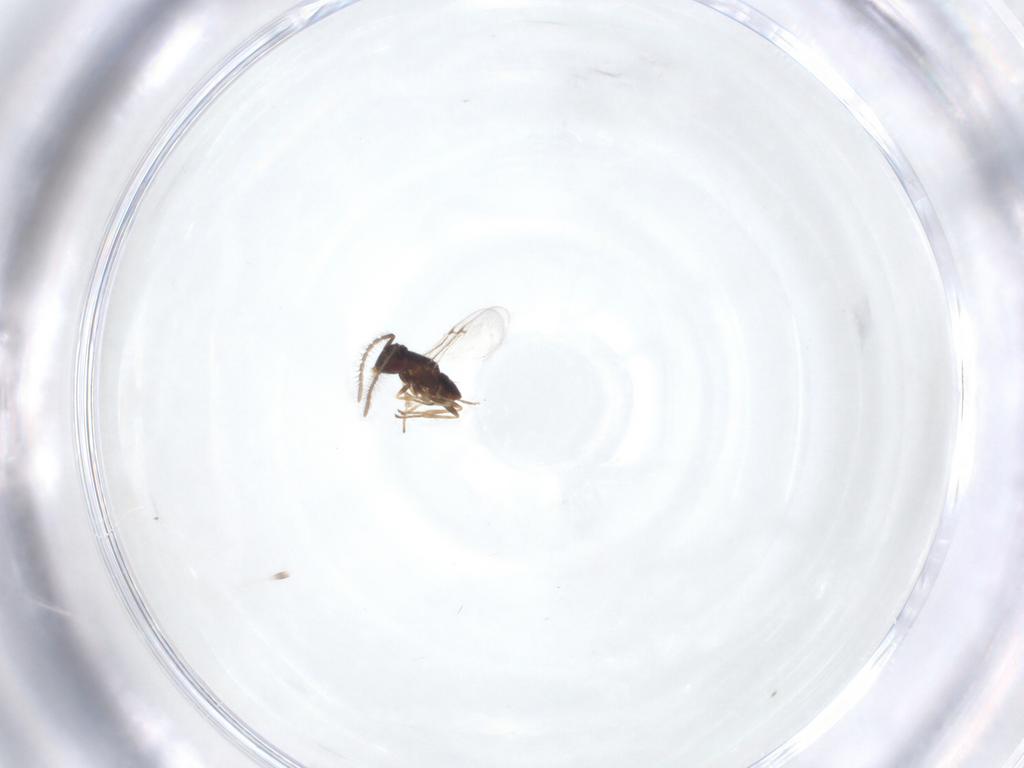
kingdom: Animalia
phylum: Arthropoda
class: Insecta
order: Hymenoptera
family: Encyrtidae
